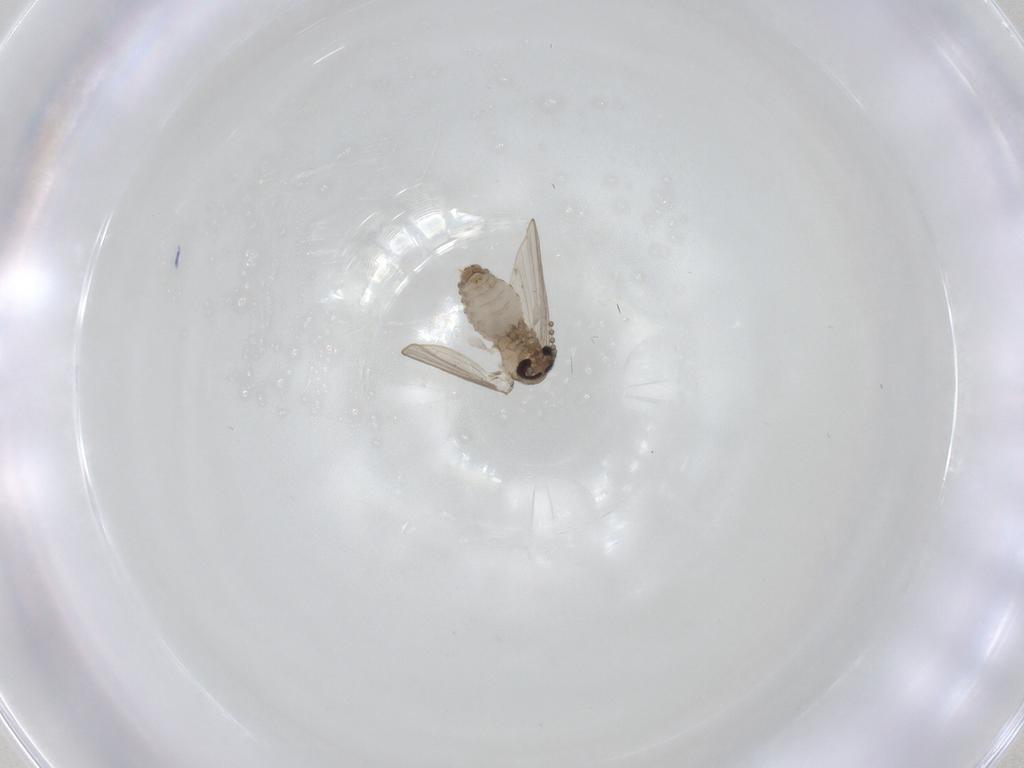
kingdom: Animalia
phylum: Arthropoda
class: Insecta
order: Diptera
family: Psychodidae
